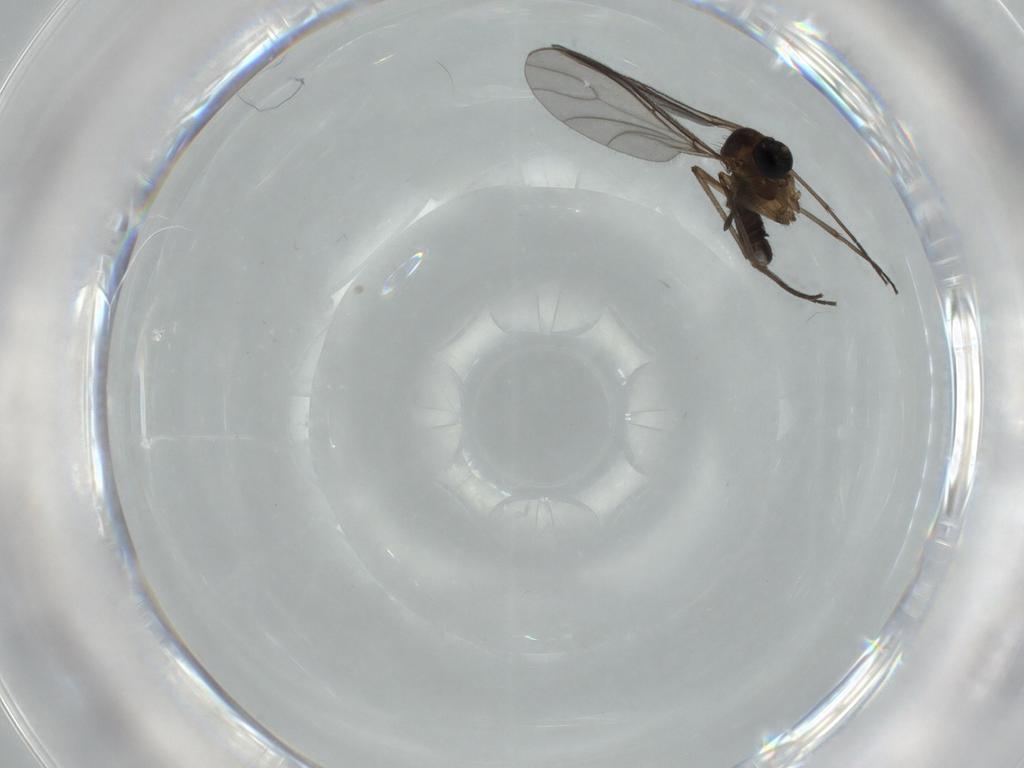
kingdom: Animalia
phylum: Arthropoda
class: Insecta
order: Diptera
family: Sciaridae
